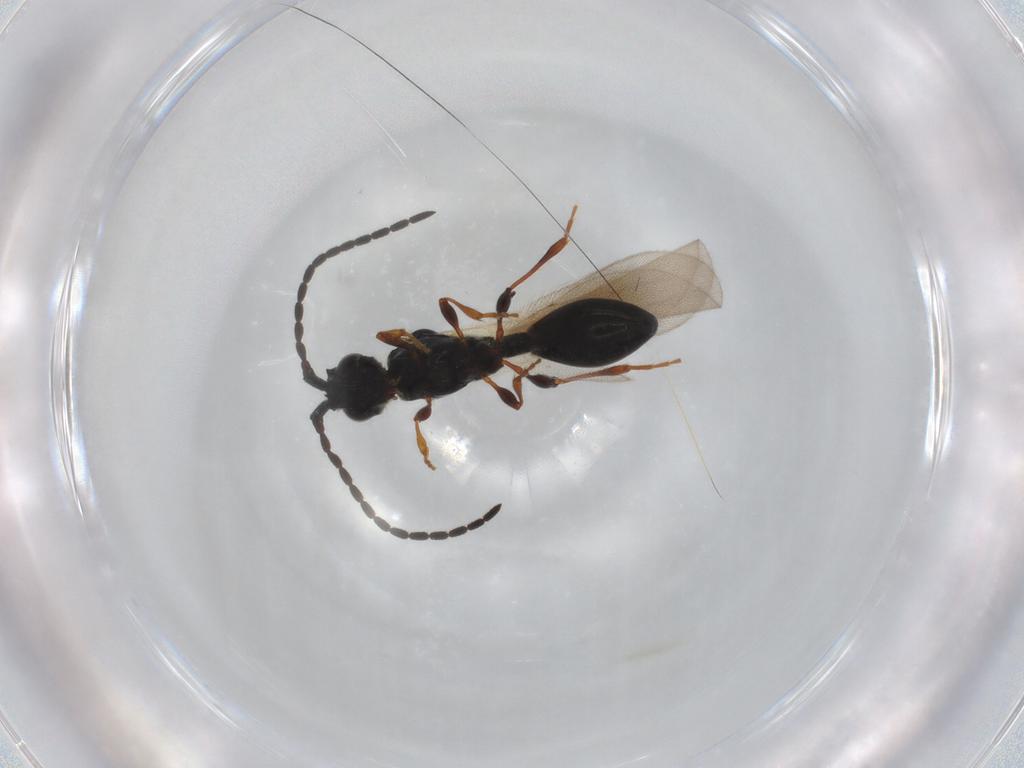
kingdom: Animalia
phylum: Arthropoda
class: Insecta
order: Hymenoptera
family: Diapriidae
